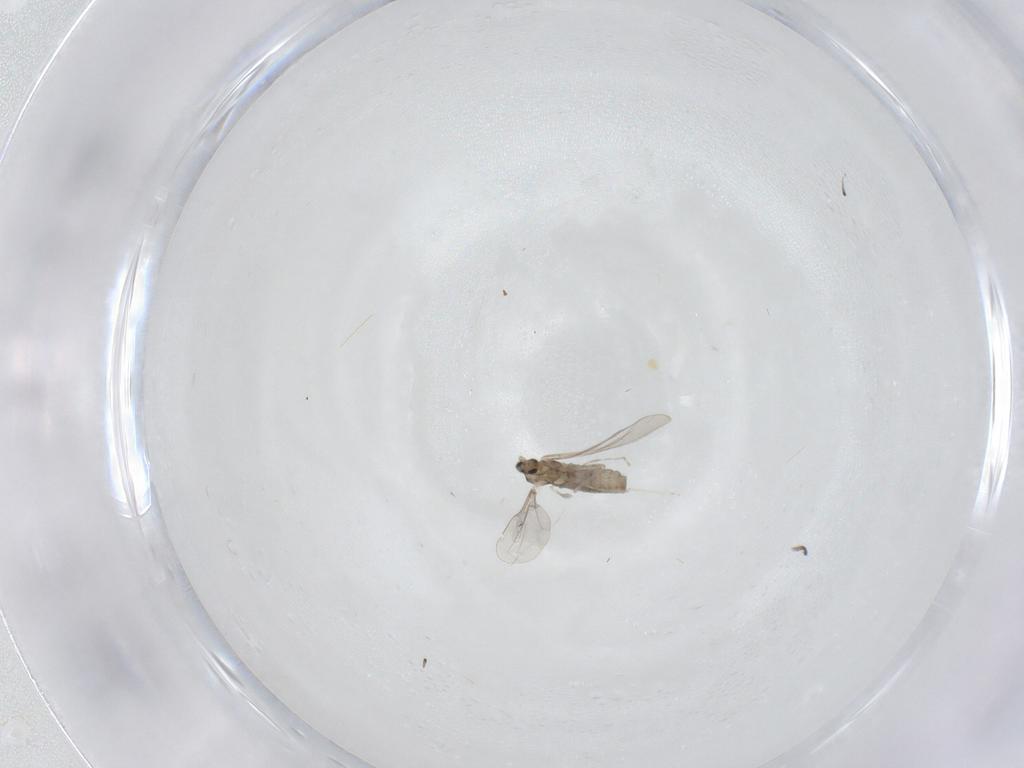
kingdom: Animalia
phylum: Arthropoda
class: Insecta
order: Diptera
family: Cecidomyiidae
